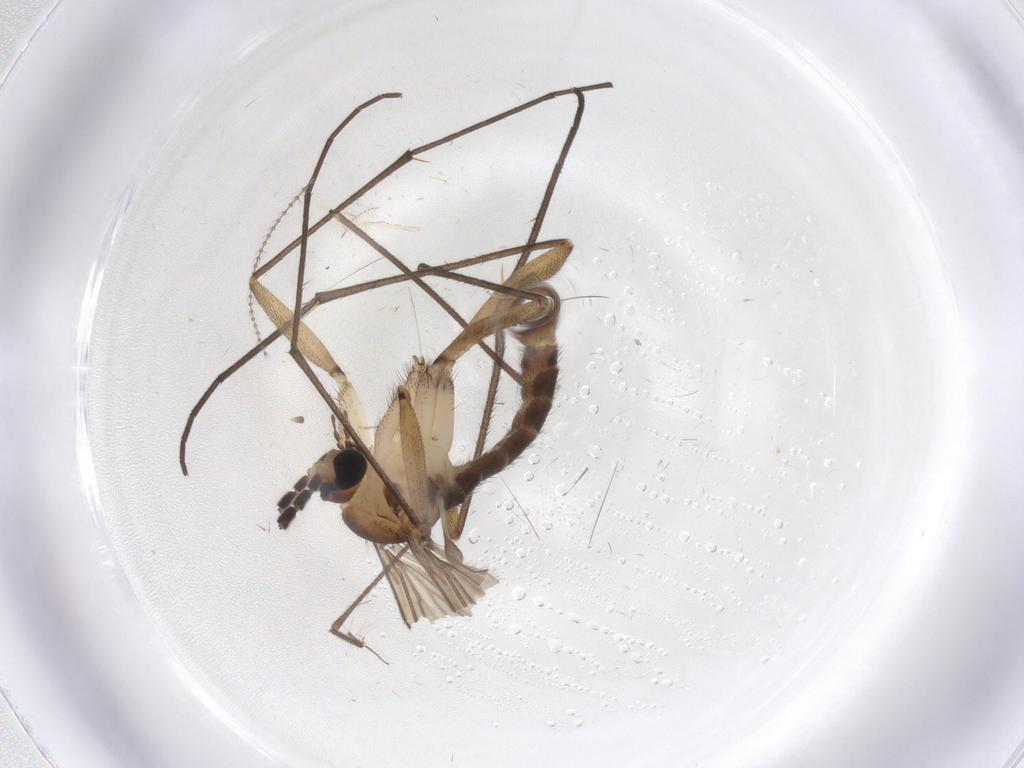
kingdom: Animalia
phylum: Arthropoda
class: Insecta
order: Diptera
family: Sciaridae
